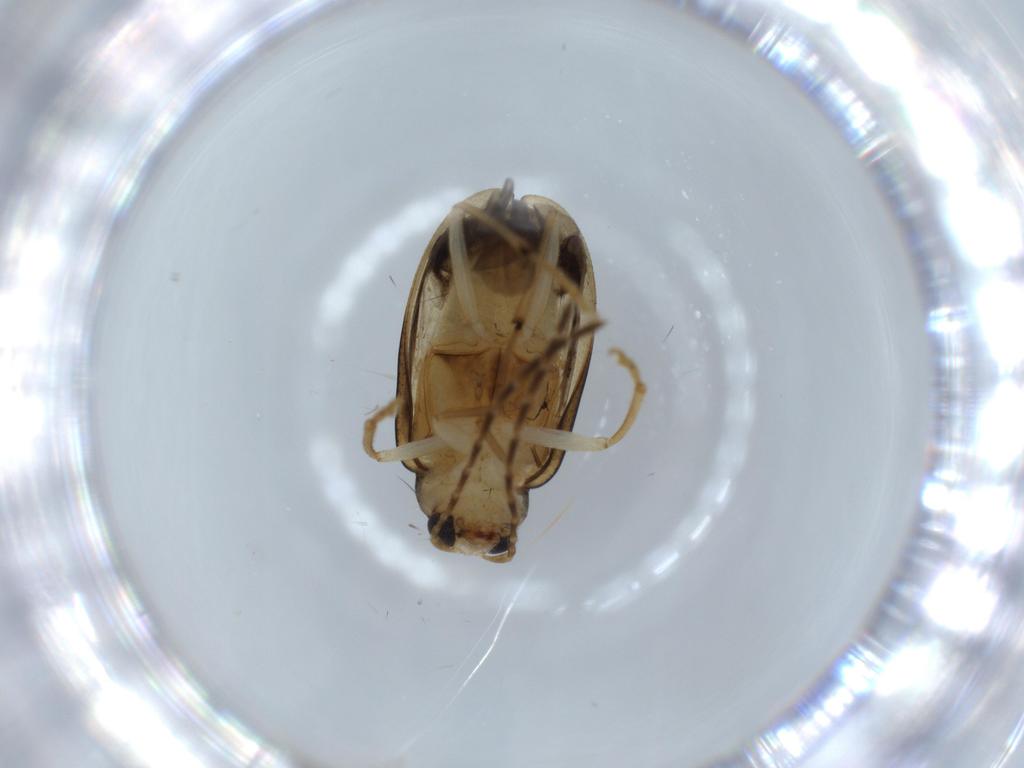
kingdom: Animalia
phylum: Arthropoda
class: Insecta
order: Coleoptera
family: Chrysomelidae
